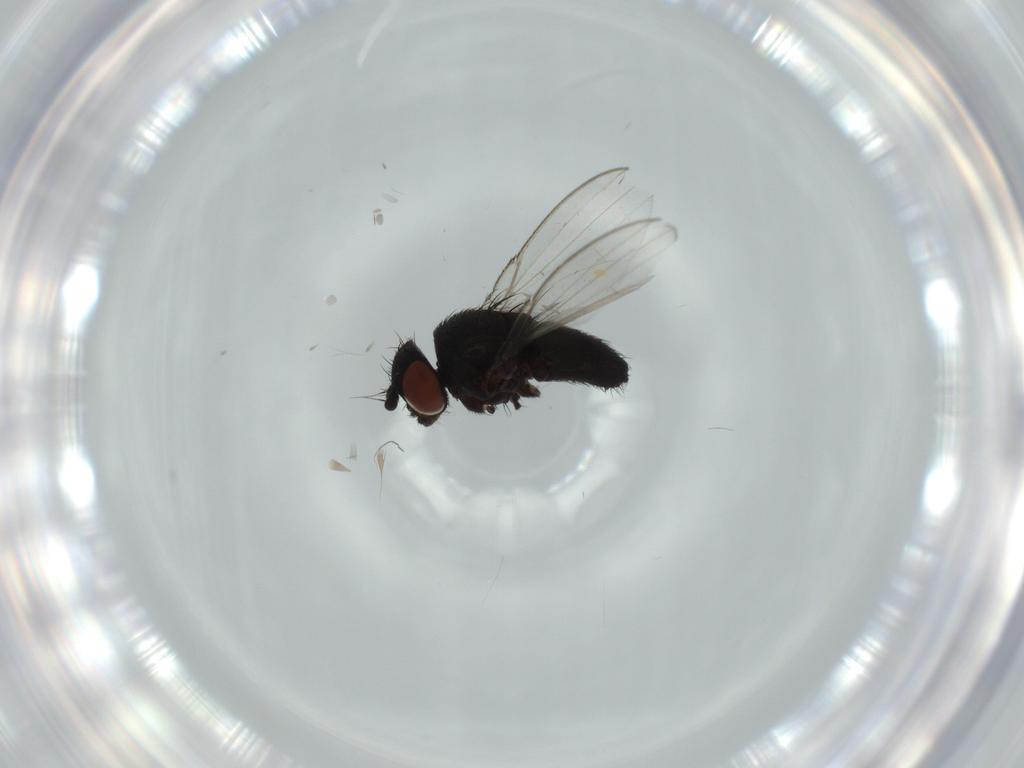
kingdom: Animalia
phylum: Arthropoda
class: Insecta
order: Diptera
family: Milichiidae
